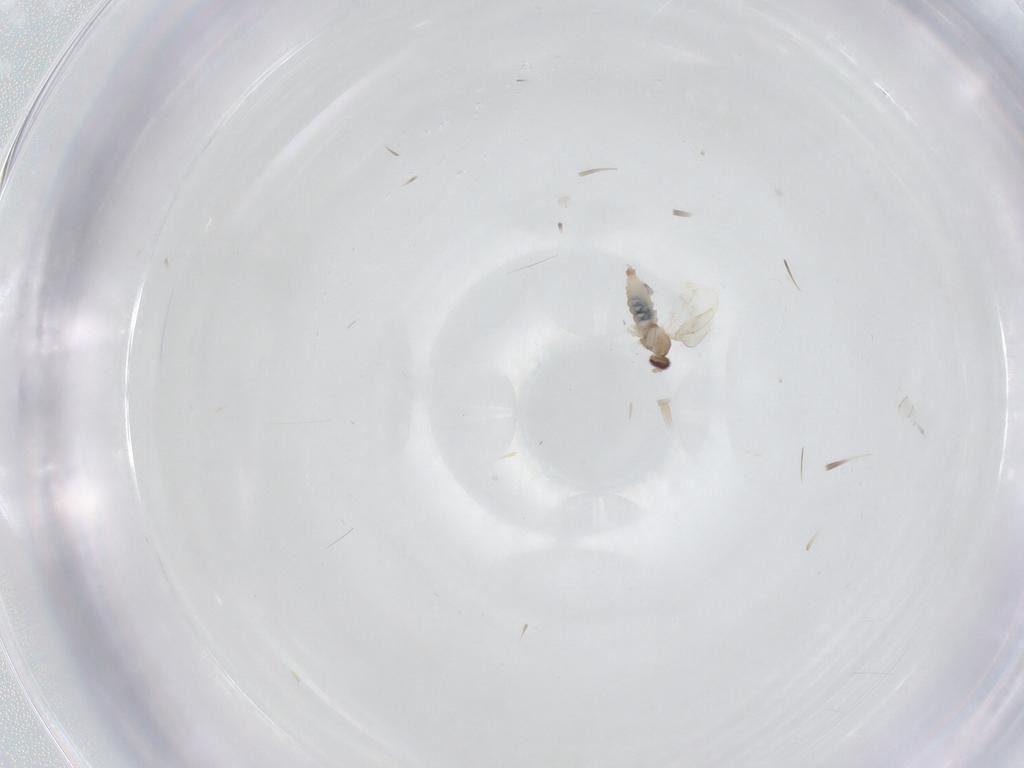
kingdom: Animalia
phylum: Arthropoda
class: Insecta
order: Diptera
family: Cecidomyiidae
